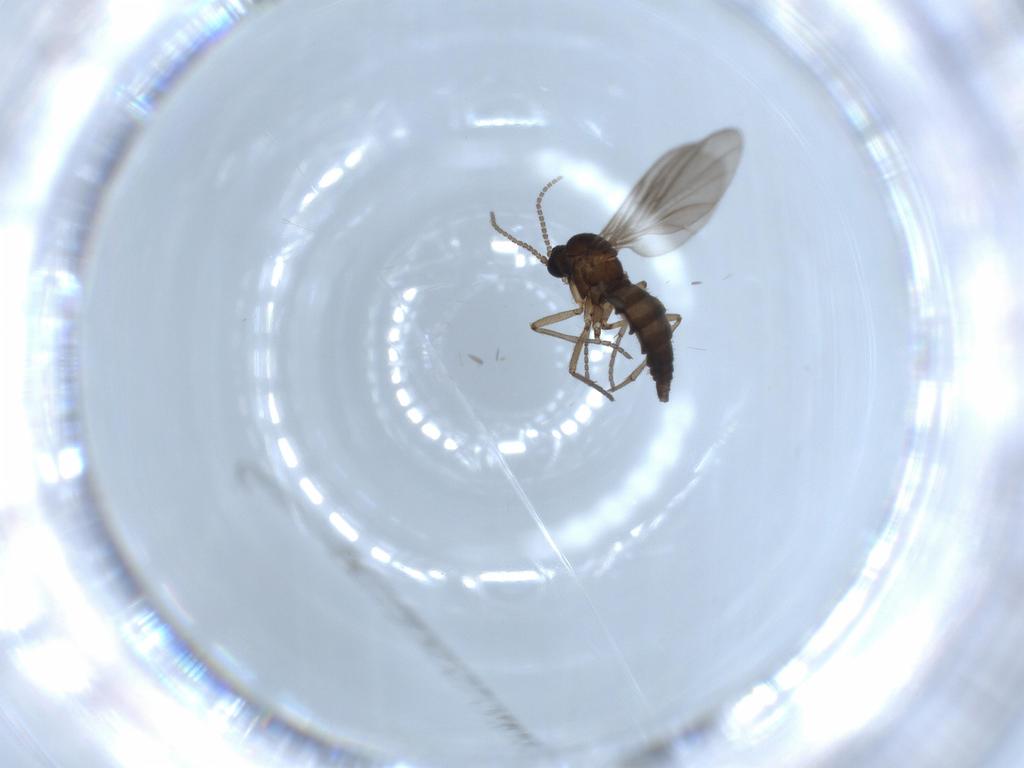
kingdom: Animalia
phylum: Arthropoda
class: Insecta
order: Diptera
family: Sciaridae
